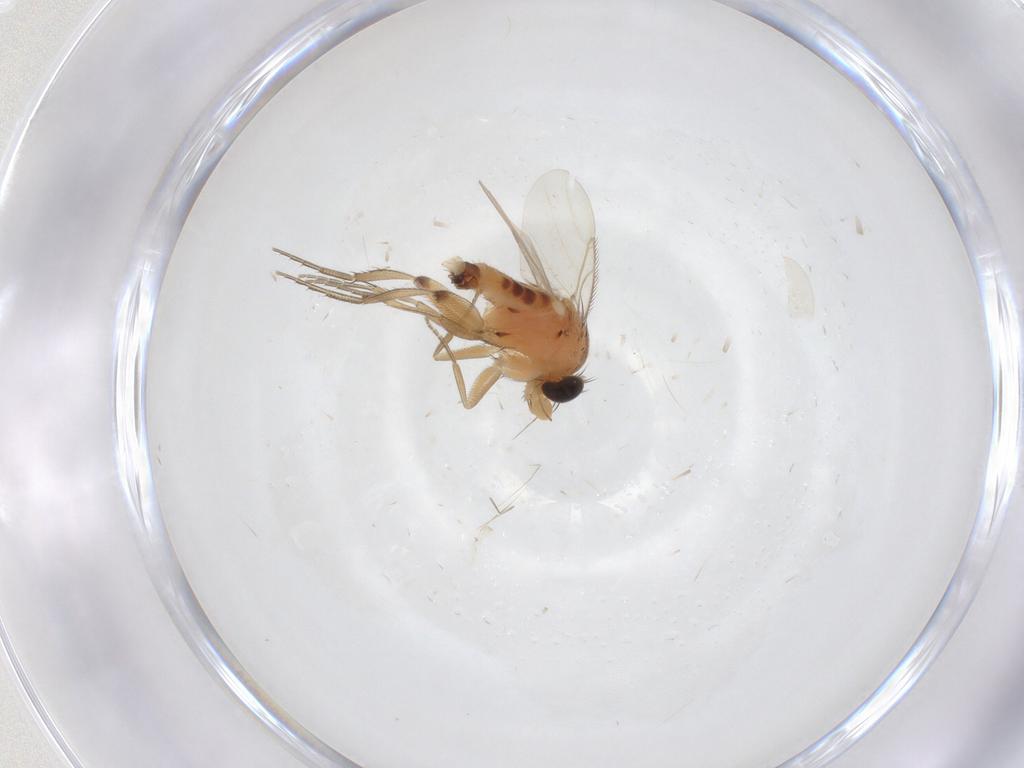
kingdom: Animalia
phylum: Arthropoda
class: Insecta
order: Diptera
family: Phoridae
